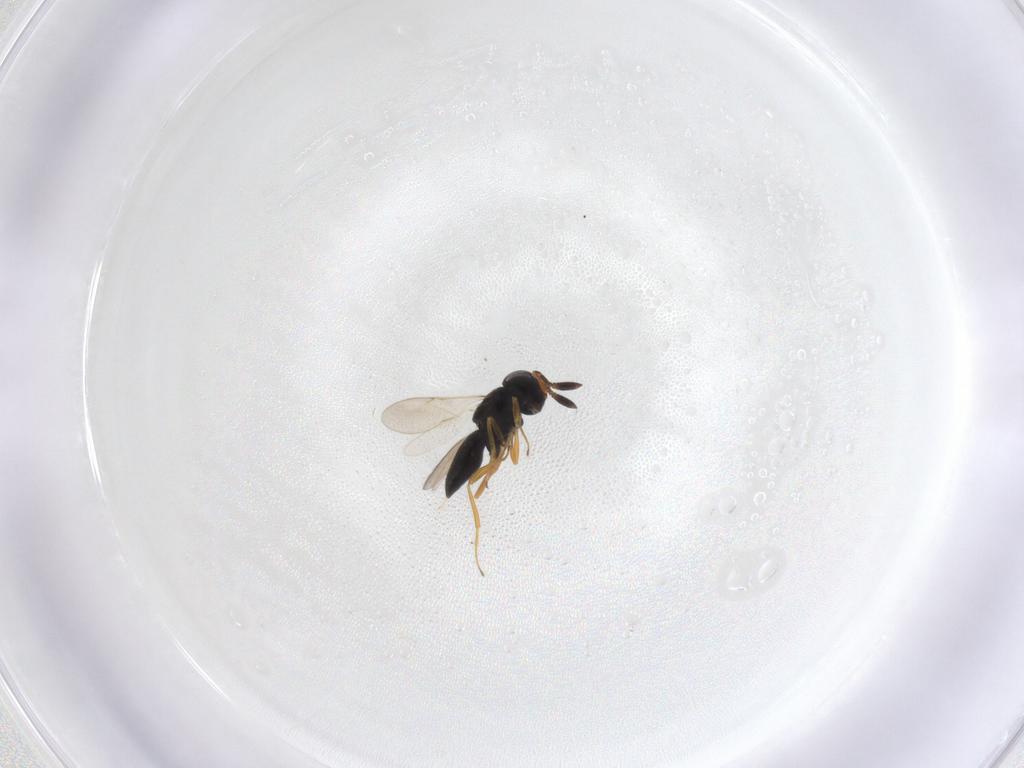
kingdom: Animalia
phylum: Arthropoda
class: Insecta
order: Hymenoptera
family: Scelionidae
